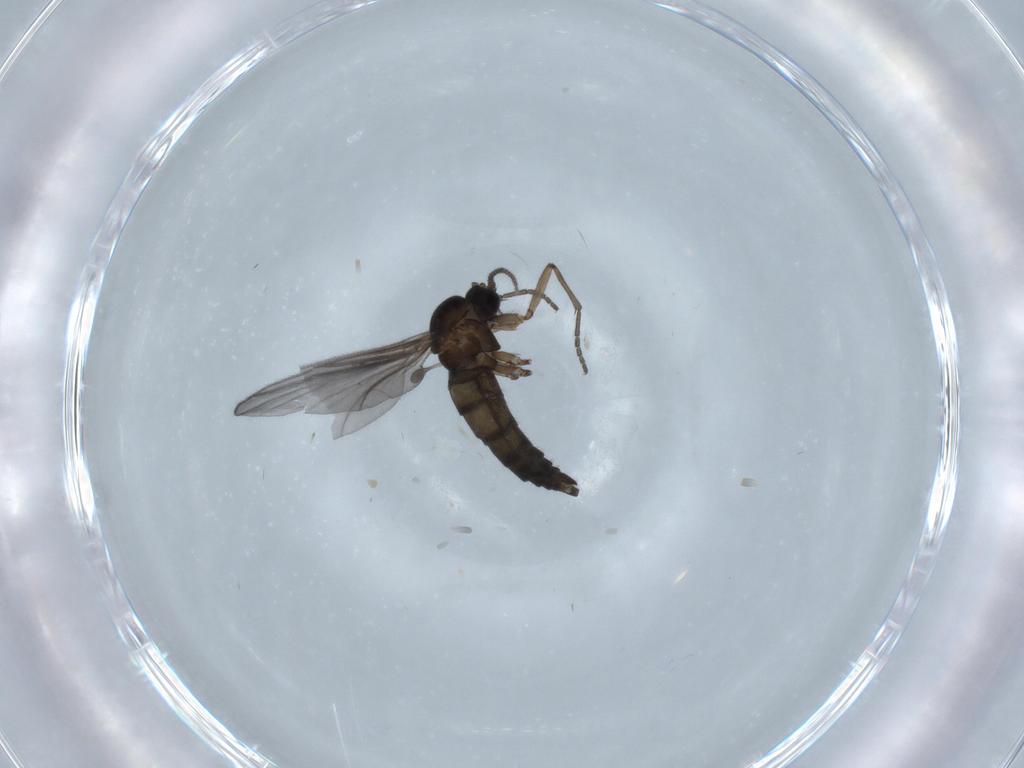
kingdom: Animalia
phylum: Arthropoda
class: Insecta
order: Diptera
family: Cecidomyiidae
